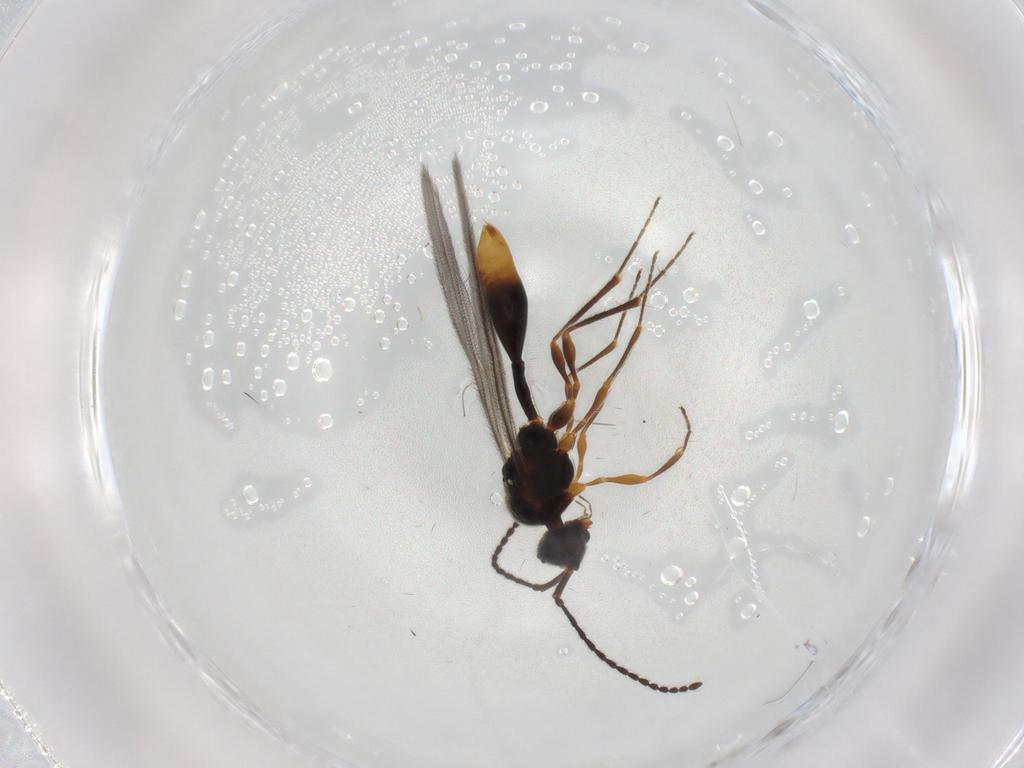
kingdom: Animalia
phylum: Arthropoda
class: Insecta
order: Hymenoptera
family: Diapriidae
